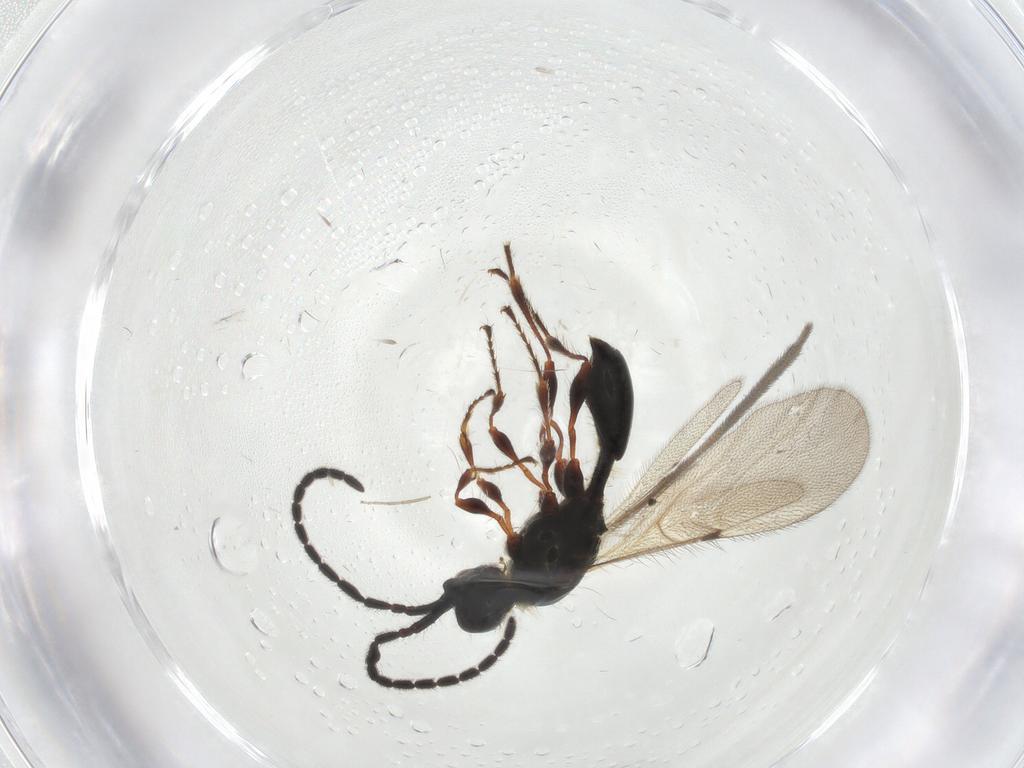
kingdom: Animalia
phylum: Arthropoda
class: Insecta
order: Hymenoptera
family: Diapriidae
